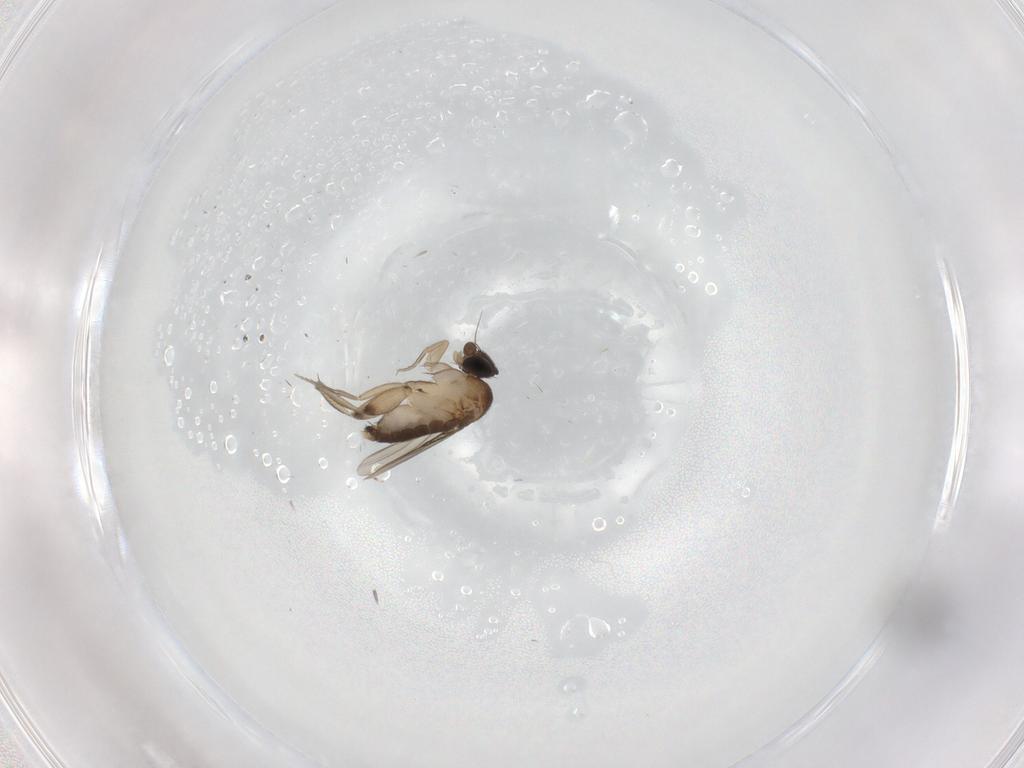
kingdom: Animalia
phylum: Arthropoda
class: Insecta
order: Diptera
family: Phoridae
